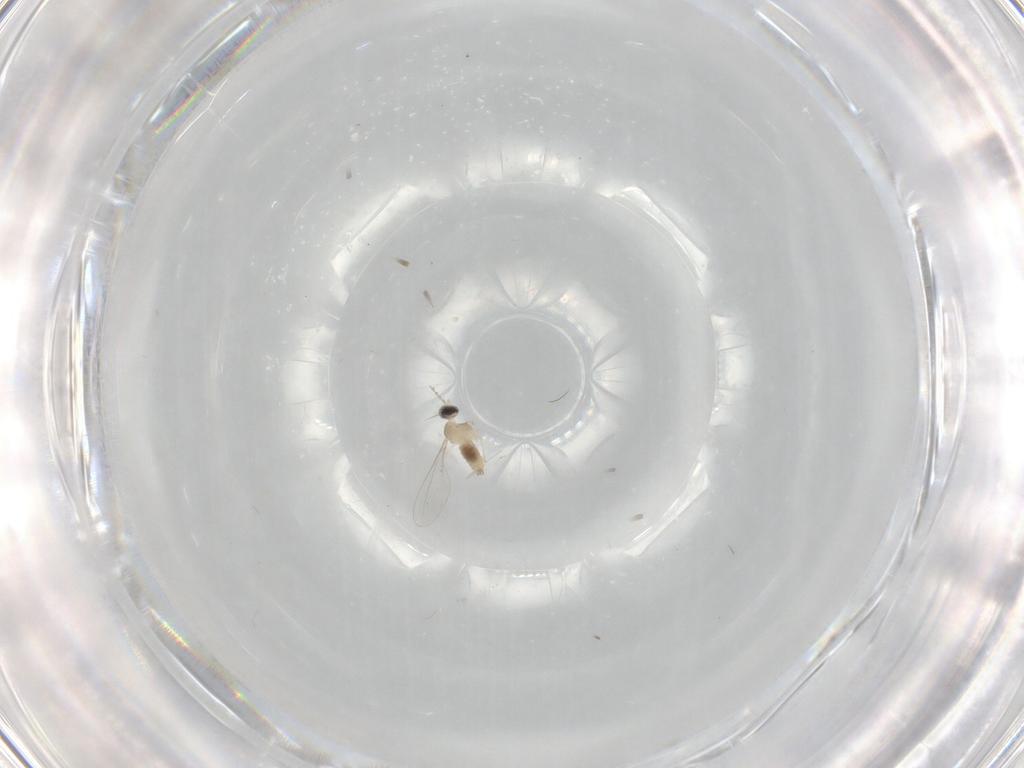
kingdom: Animalia
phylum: Arthropoda
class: Insecta
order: Diptera
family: Cecidomyiidae
